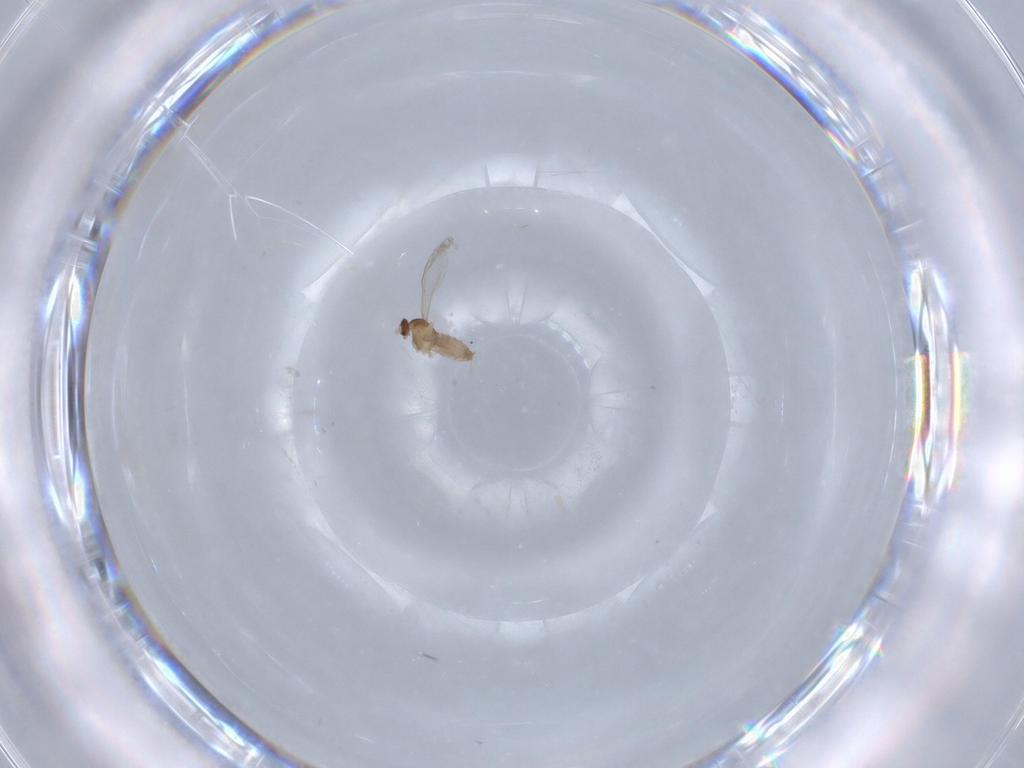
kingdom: Animalia
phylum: Arthropoda
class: Insecta
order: Diptera
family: Cecidomyiidae
